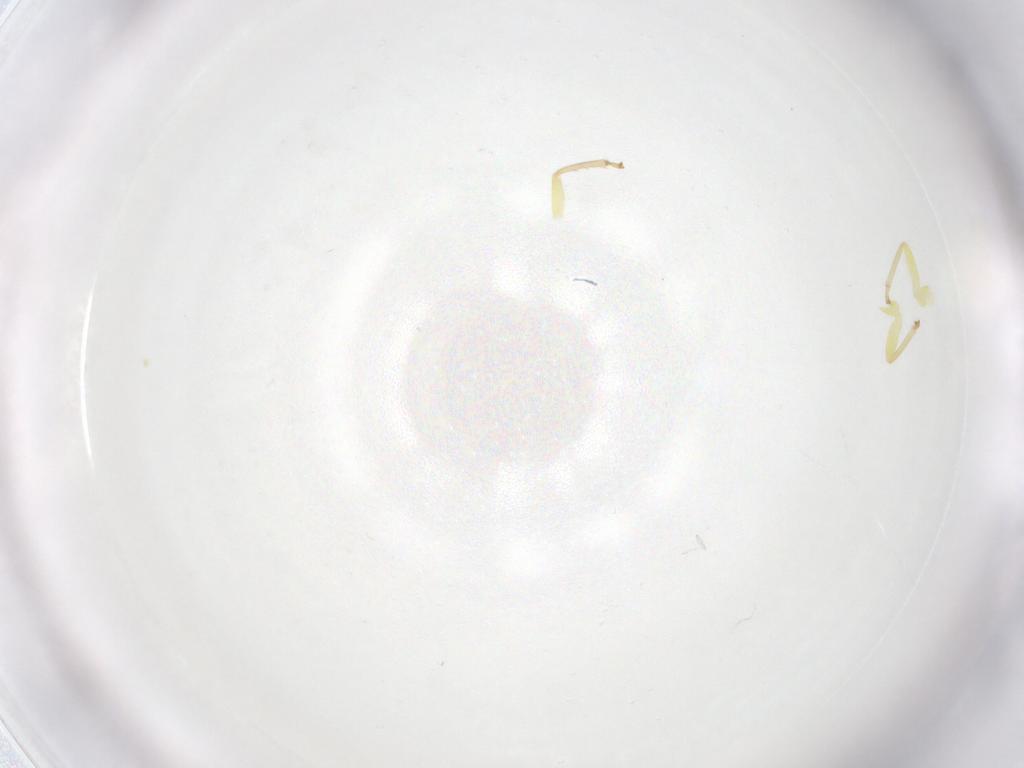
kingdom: Animalia
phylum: Arthropoda
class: Insecta
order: Hemiptera
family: Cicadellidae
